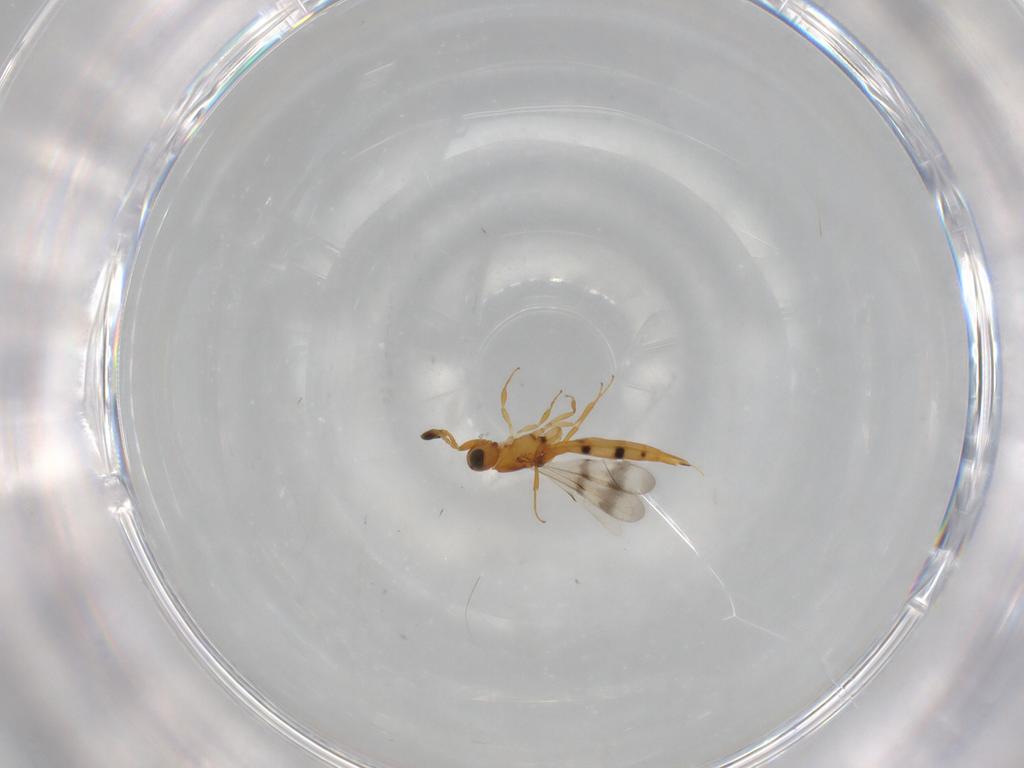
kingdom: Animalia
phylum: Arthropoda
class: Insecta
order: Hymenoptera
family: Scelionidae
